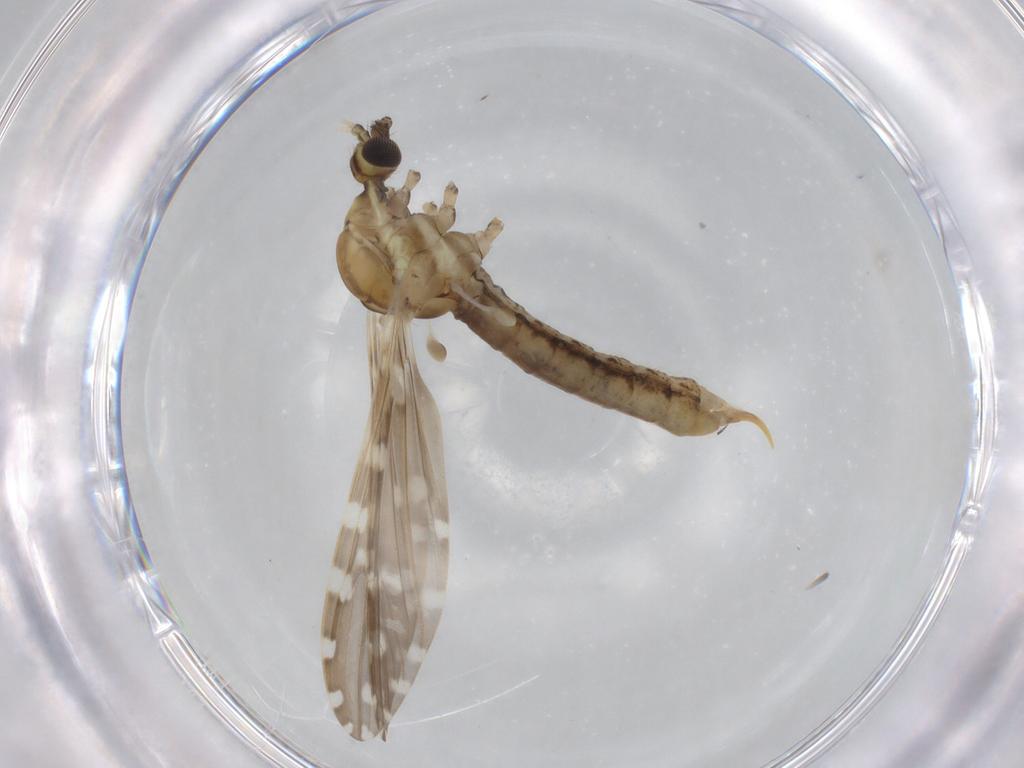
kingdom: Animalia
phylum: Arthropoda
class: Insecta
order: Diptera
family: Limoniidae
